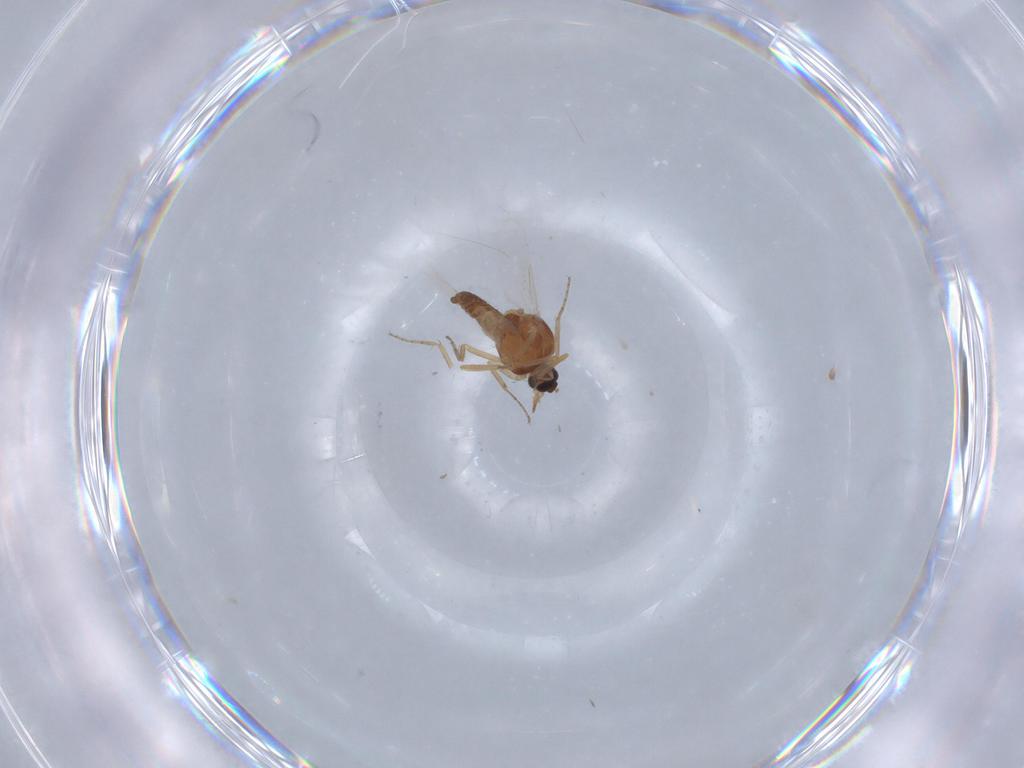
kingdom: Animalia
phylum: Arthropoda
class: Insecta
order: Diptera
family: Ceratopogonidae
